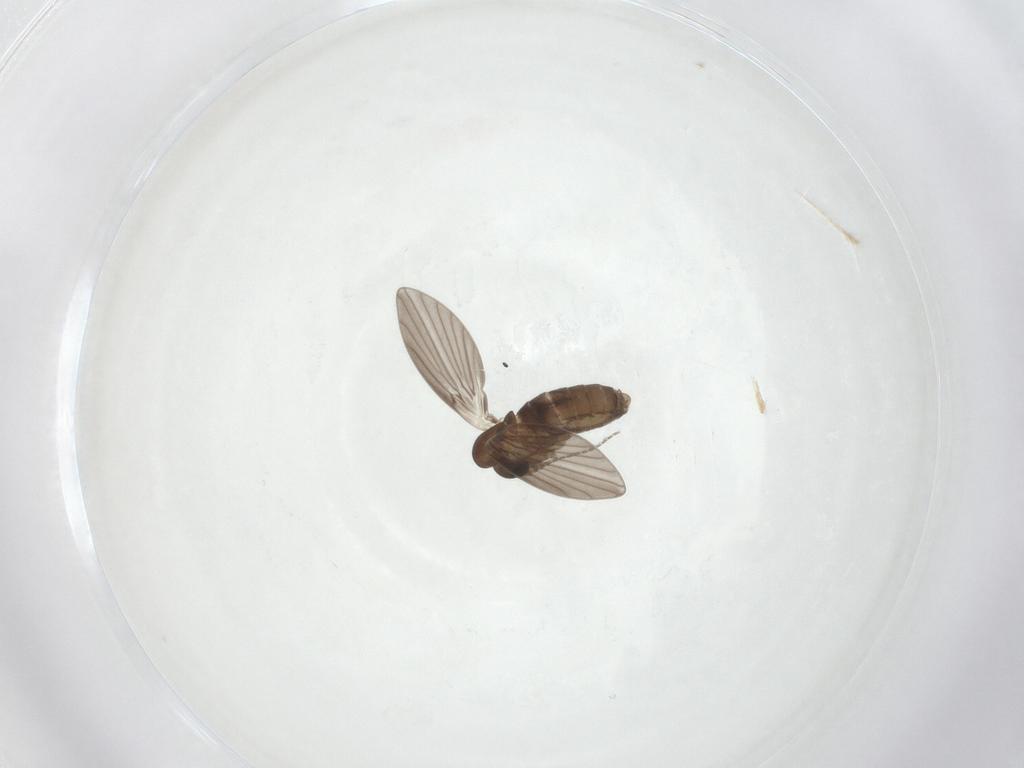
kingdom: Animalia
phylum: Arthropoda
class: Insecta
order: Diptera
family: Psychodidae
